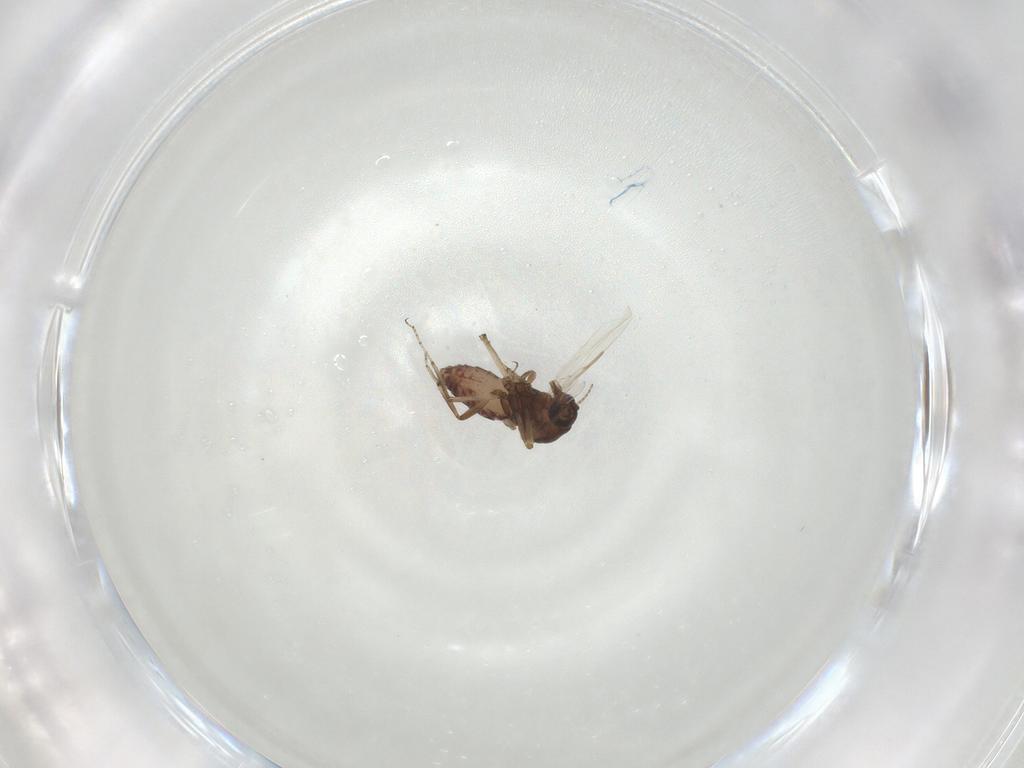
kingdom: Animalia
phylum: Arthropoda
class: Insecta
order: Diptera
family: Ceratopogonidae
